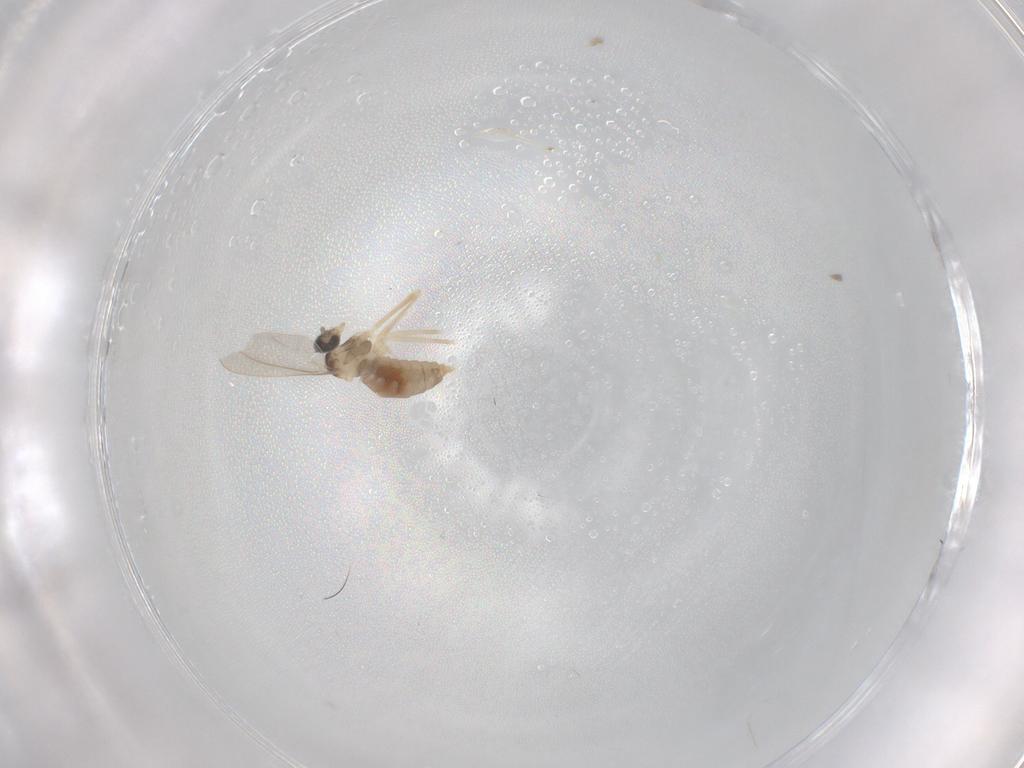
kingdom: Animalia
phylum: Arthropoda
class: Insecta
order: Diptera
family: Cecidomyiidae
